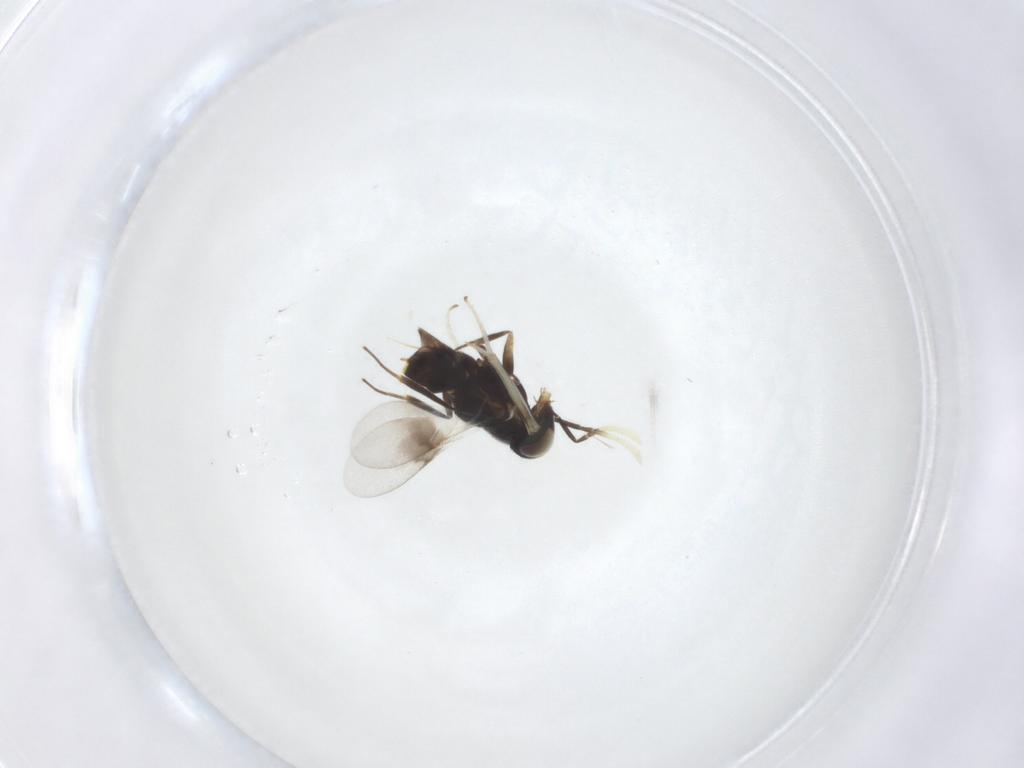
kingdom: Animalia
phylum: Arthropoda
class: Insecta
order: Hymenoptera
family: Encyrtidae
